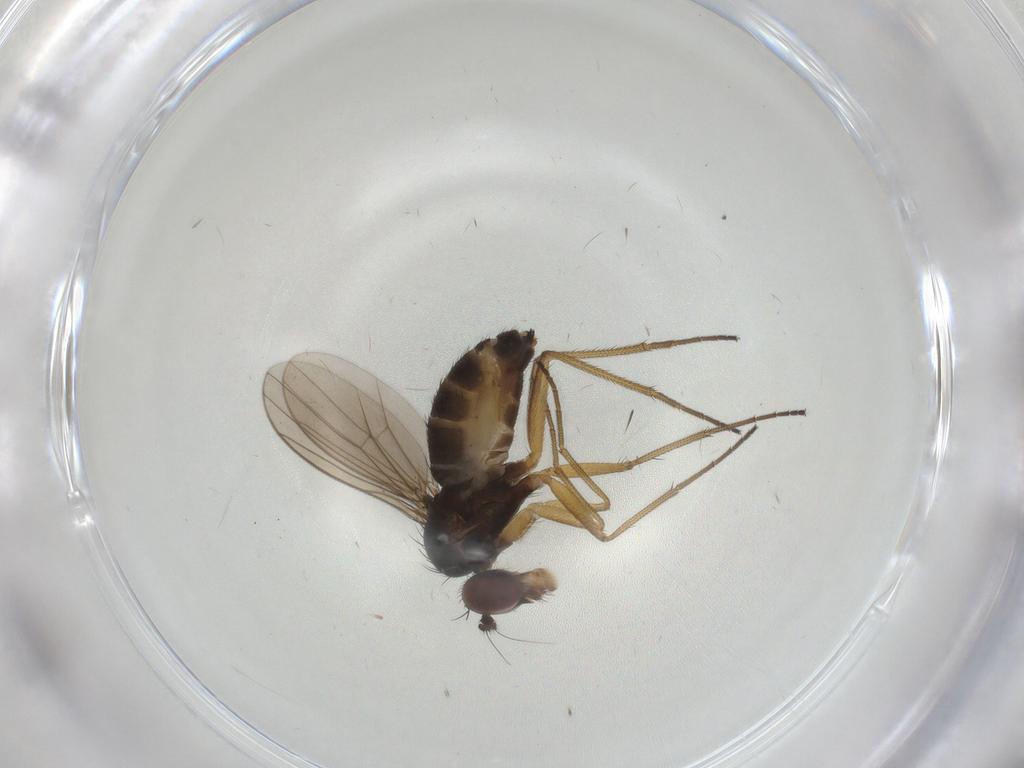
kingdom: Animalia
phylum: Arthropoda
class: Insecta
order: Diptera
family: Dolichopodidae
